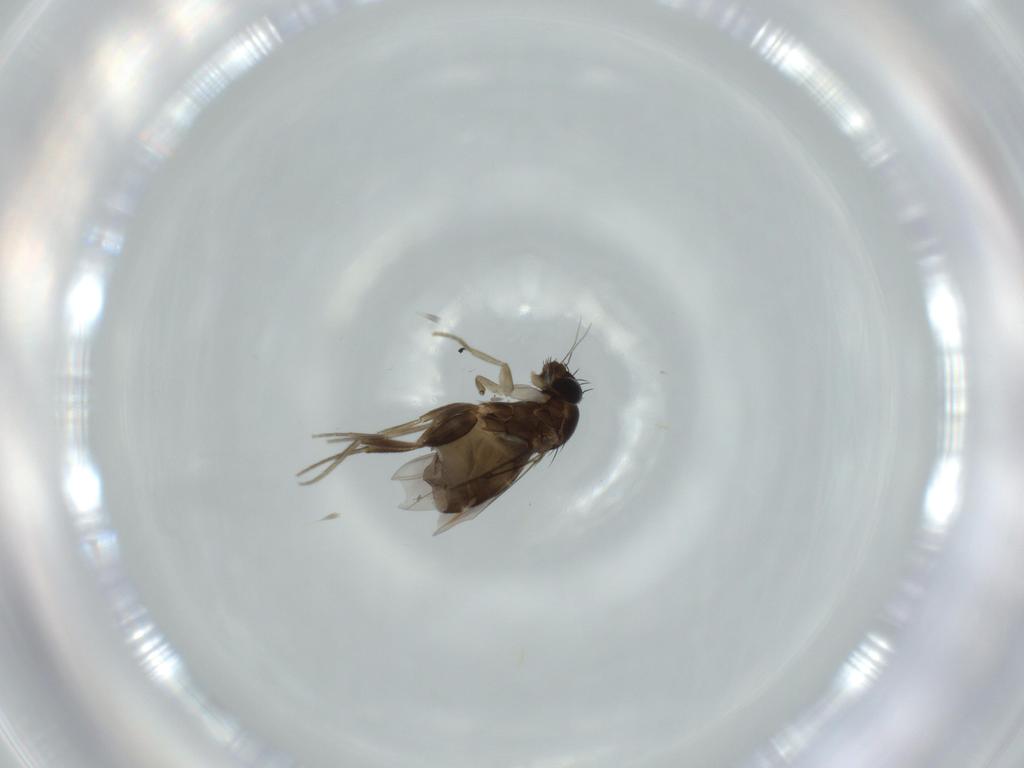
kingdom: Animalia
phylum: Arthropoda
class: Insecta
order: Diptera
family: Phoridae
